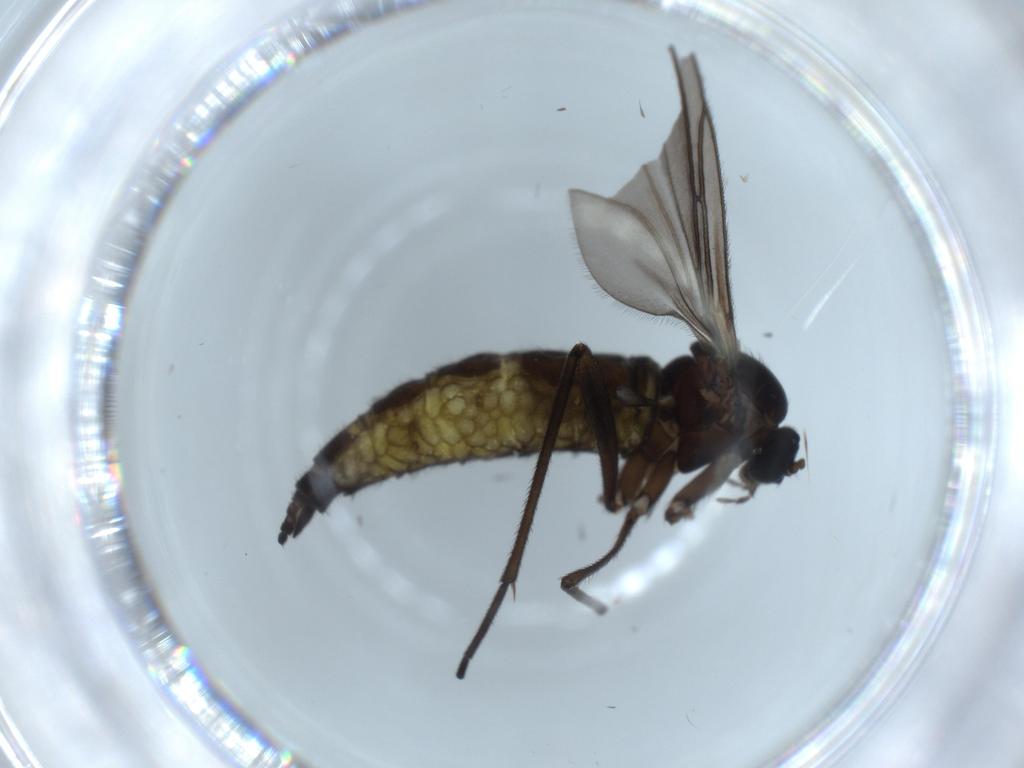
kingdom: Animalia
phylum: Arthropoda
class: Insecta
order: Diptera
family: Sciaridae
